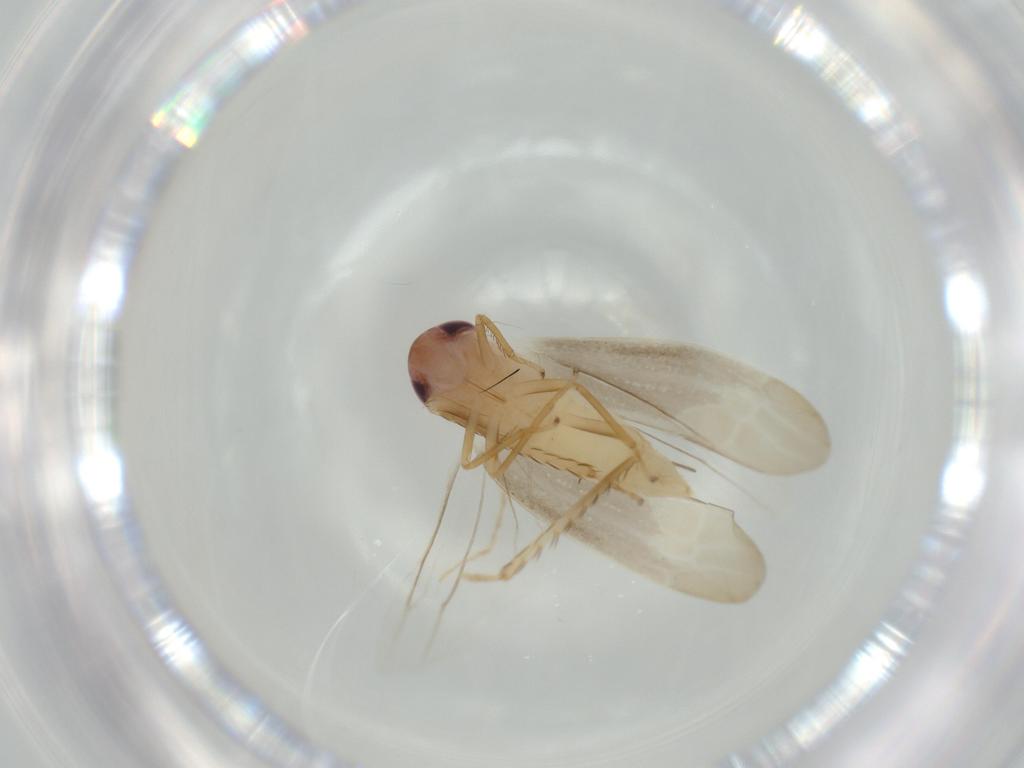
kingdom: Animalia
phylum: Arthropoda
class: Insecta
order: Hemiptera
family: Cicadellidae
